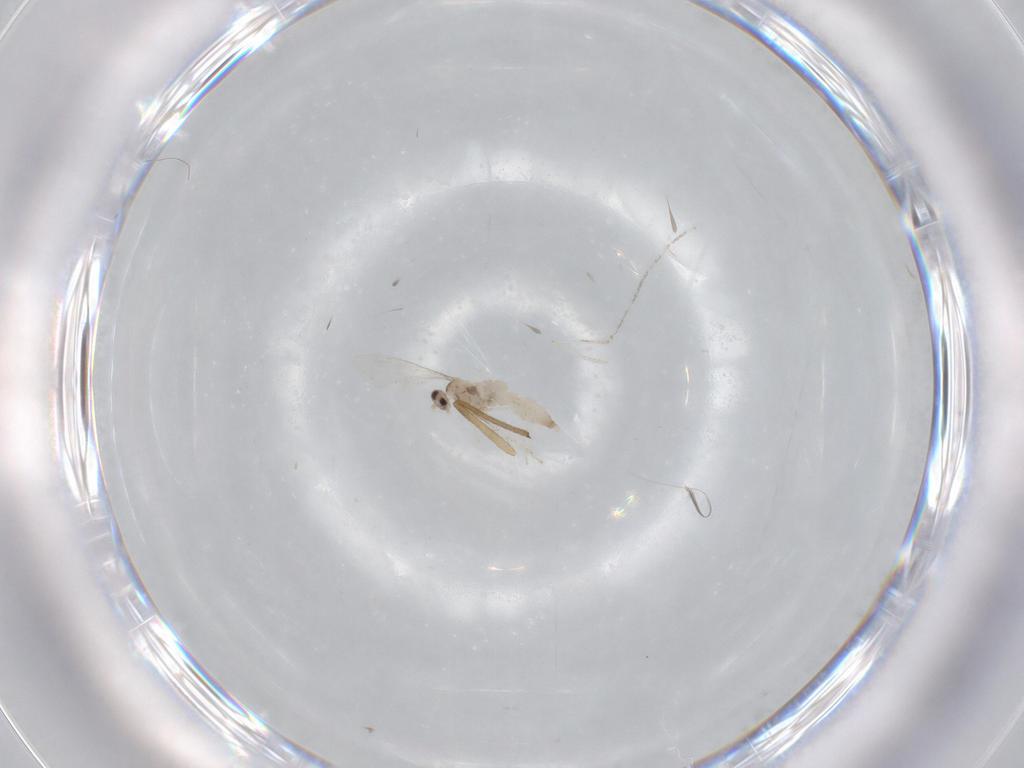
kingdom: Animalia
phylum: Arthropoda
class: Insecta
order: Diptera
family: Cecidomyiidae
